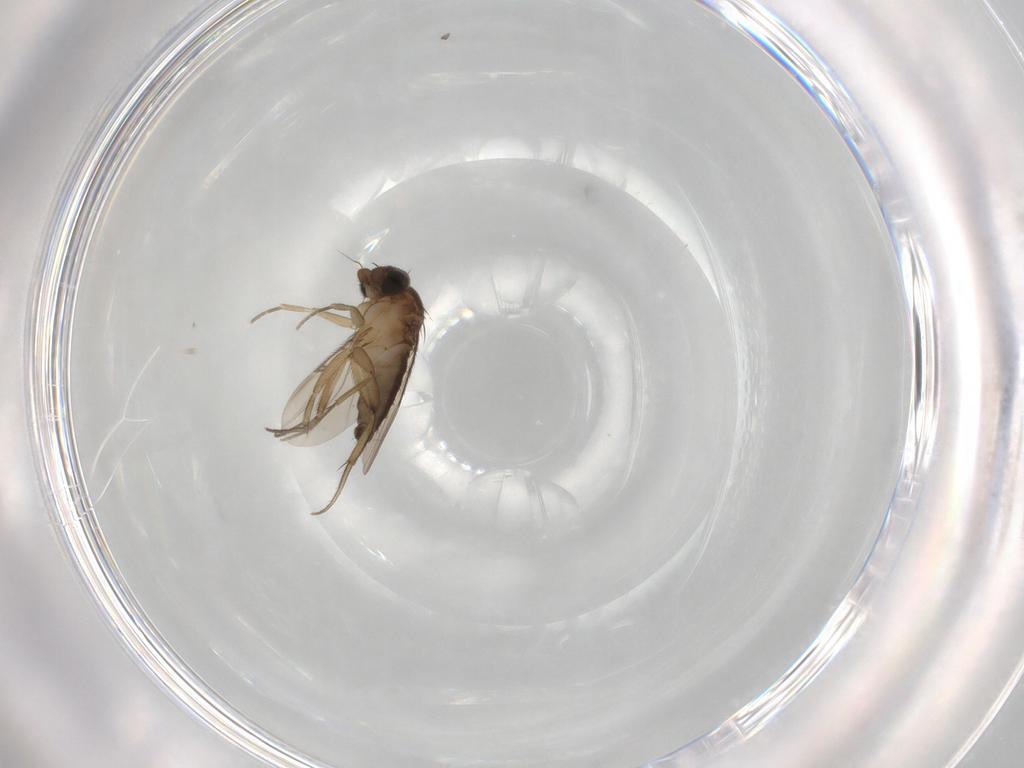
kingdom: Animalia
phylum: Arthropoda
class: Insecta
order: Diptera
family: Phoridae
